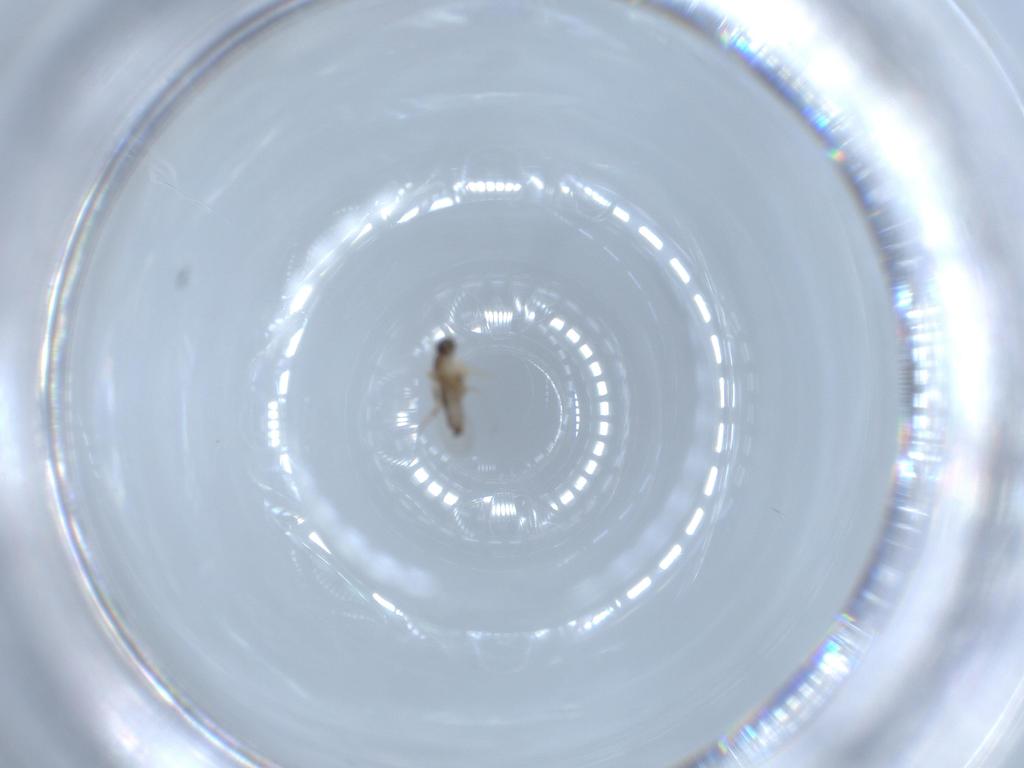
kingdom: Animalia
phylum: Arthropoda
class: Insecta
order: Diptera
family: Phoridae
